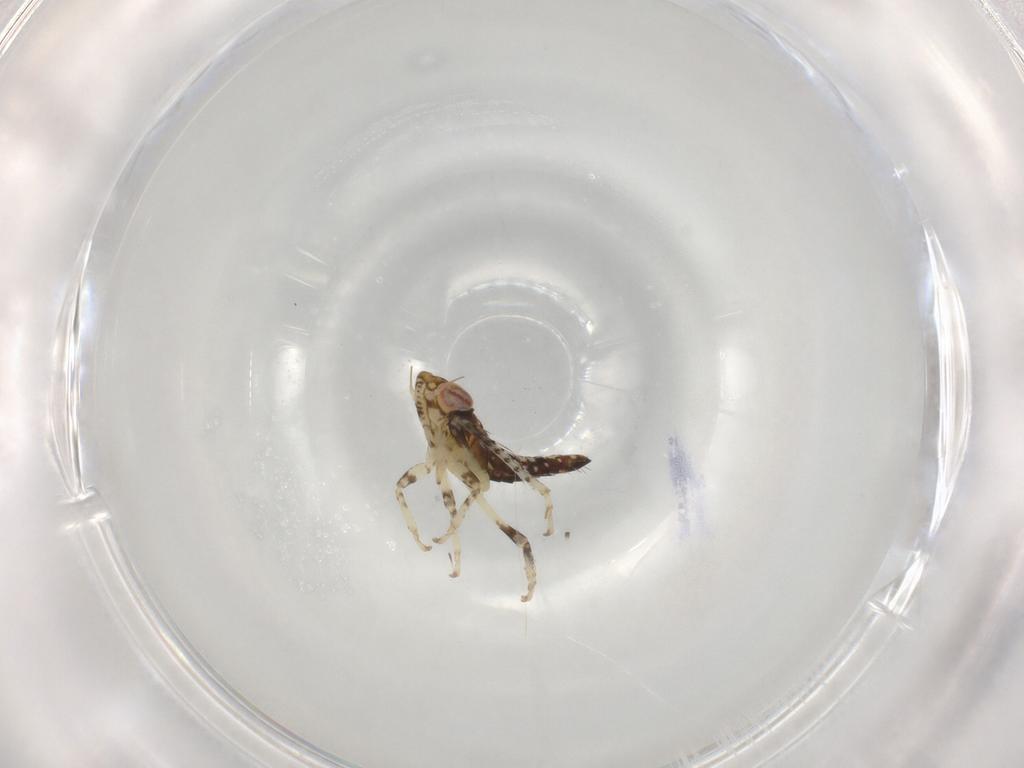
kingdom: Animalia
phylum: Arthropoda
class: Insecta
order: Hemiptera
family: Cicadellidae
